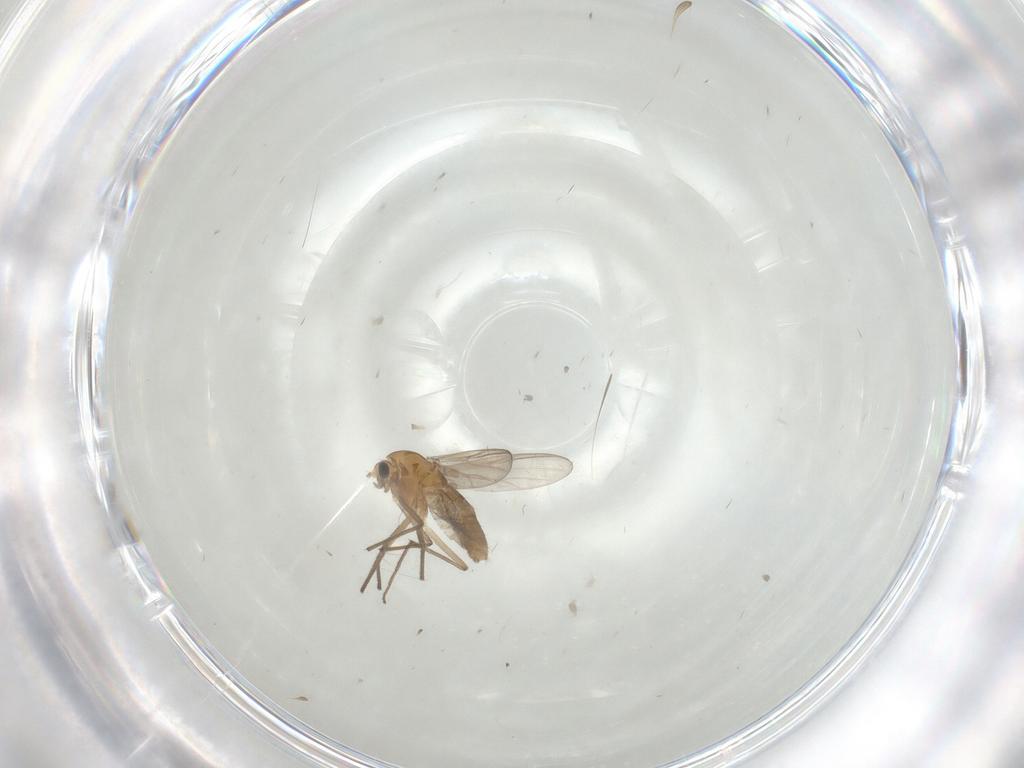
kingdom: Animalia
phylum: Arthropoda
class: Insecta
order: Diptera
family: Chironomidae
